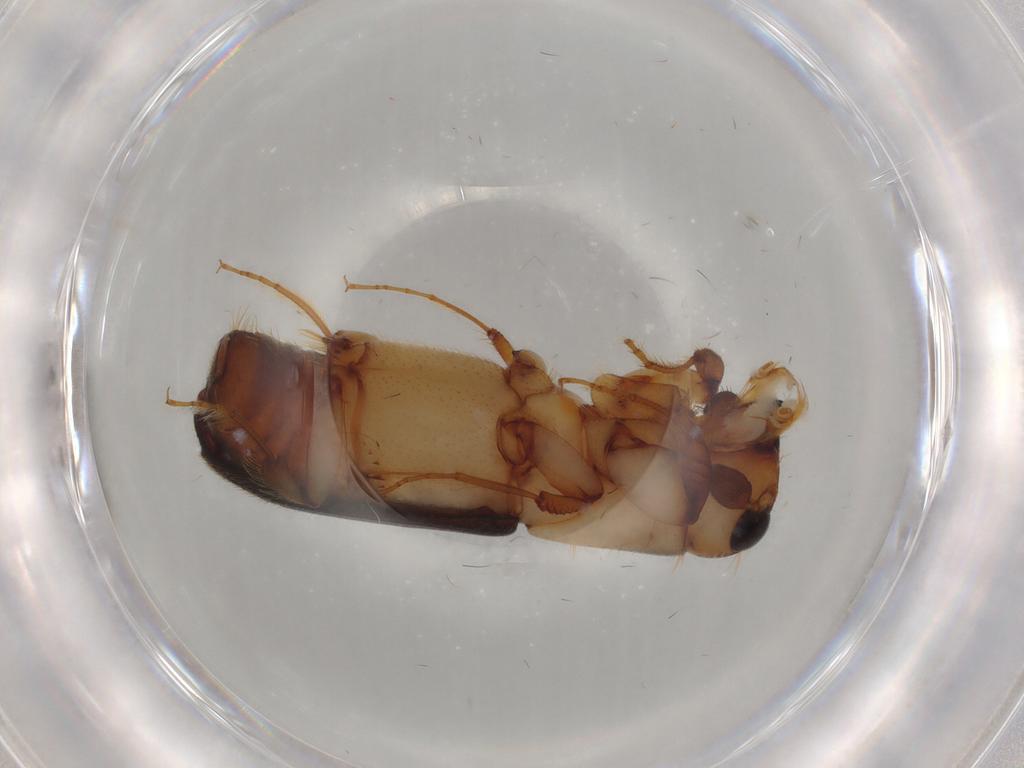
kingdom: Animalia
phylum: Arthropoda
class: Insecta
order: Coleoptera
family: Curculionidae
